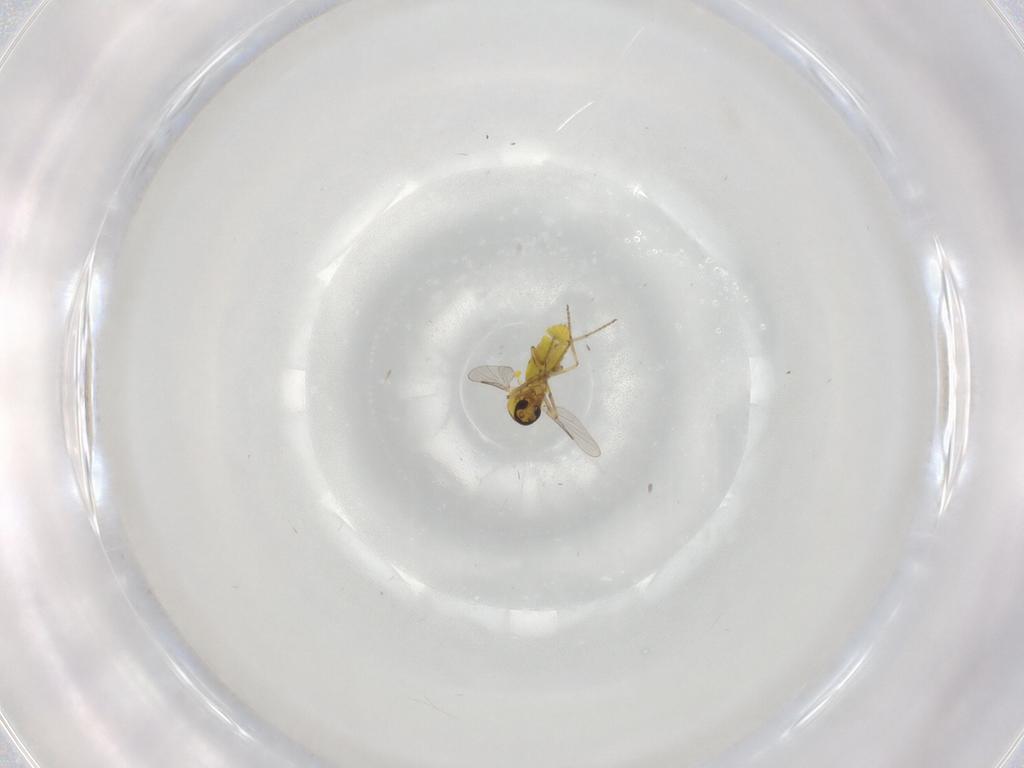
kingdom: Animalia
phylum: Arthropoda
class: Insecta
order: Diptera
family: Ceratopogonidae
